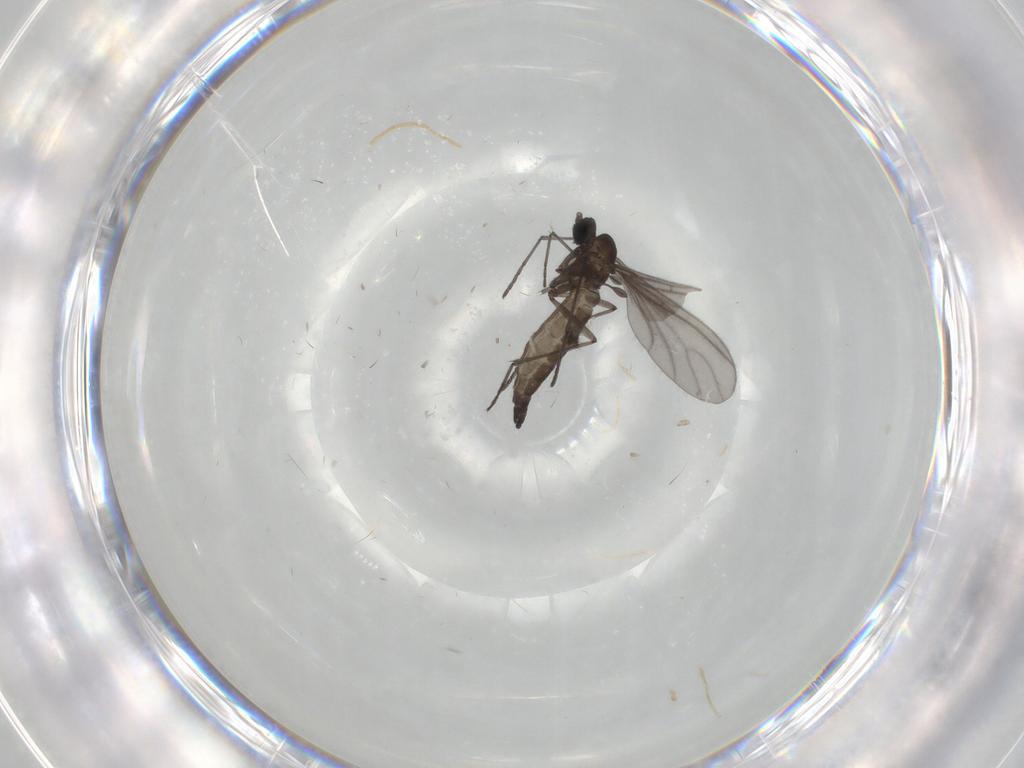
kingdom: Animalia
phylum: Arthropoda
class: Insecta
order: Diptera
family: Sciaridae
